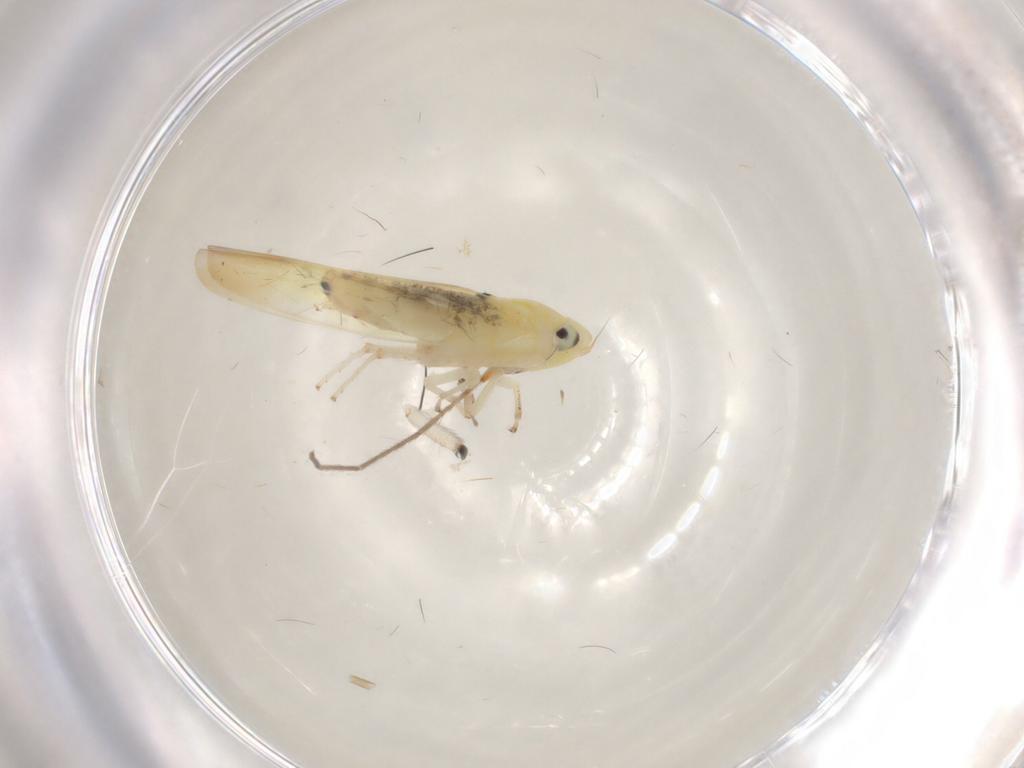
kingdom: Animalia
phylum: Arthropoda
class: Insecta
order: Hemiptera
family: Cicadellidae
